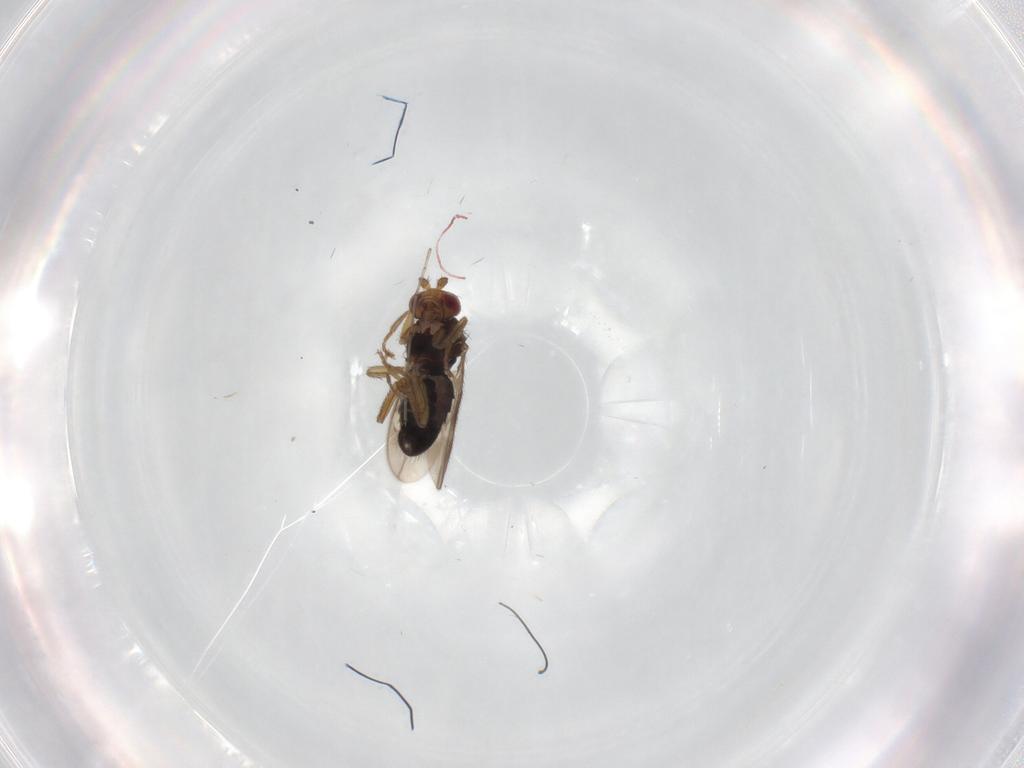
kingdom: Animalia
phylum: Arthropoda
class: Insecta
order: Diptera
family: Sphaeroceridae
